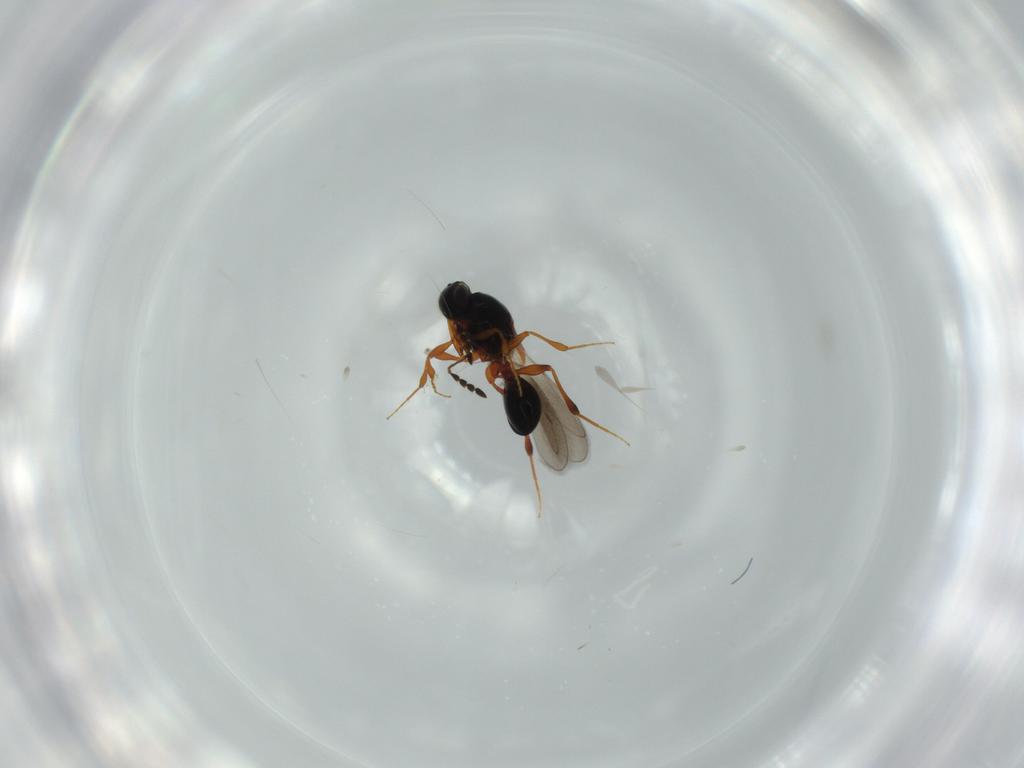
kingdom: Animalia
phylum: Arthropoda
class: Insecta
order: Hymenoptera
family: Platygastridae
